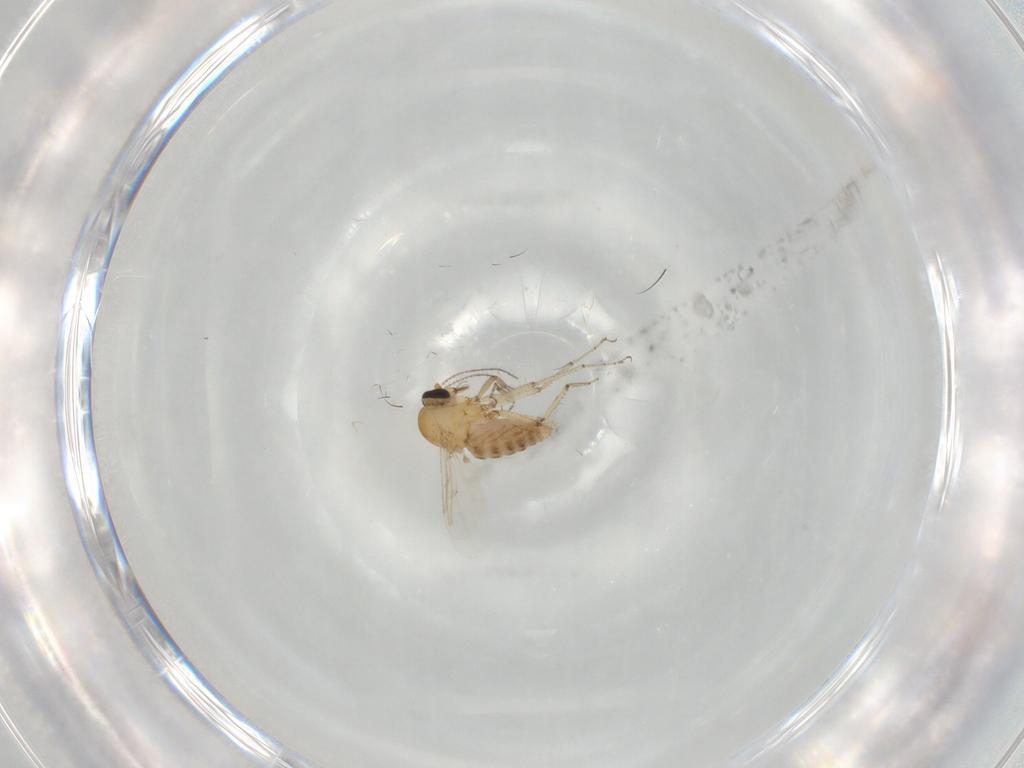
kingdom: Animalia
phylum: Arthropoda
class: Insecta
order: Diptera
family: Ceratopogonidae
